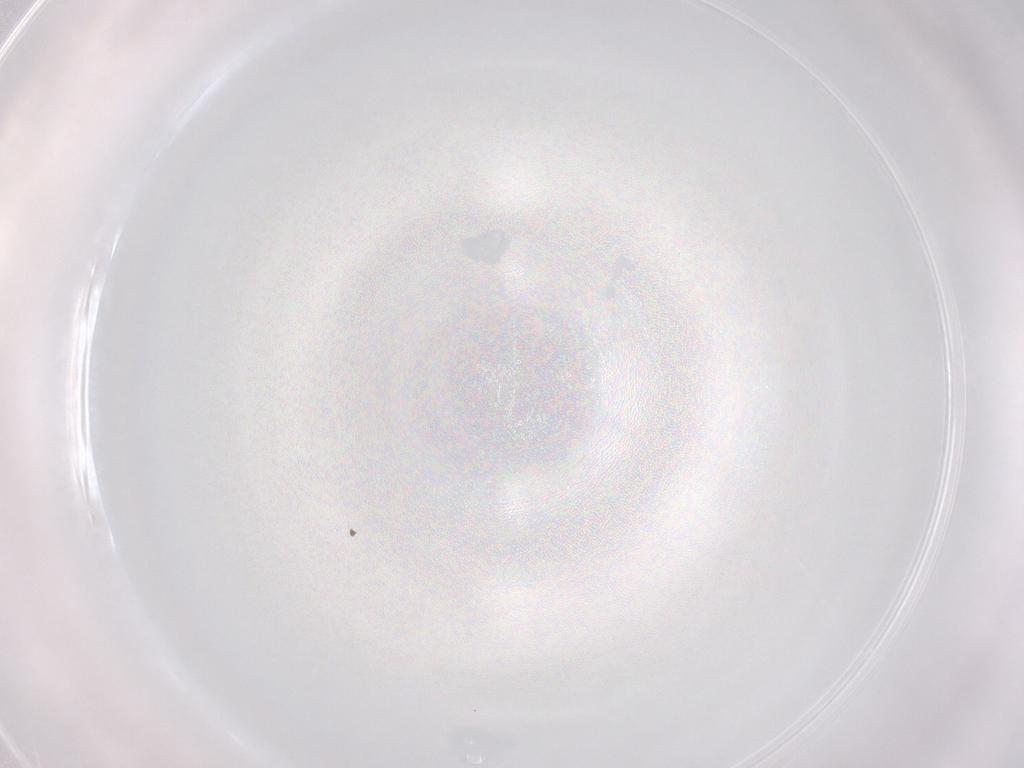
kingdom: Animalia
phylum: Arthropoda
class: Insecta
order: Diptera
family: Sciaridae
